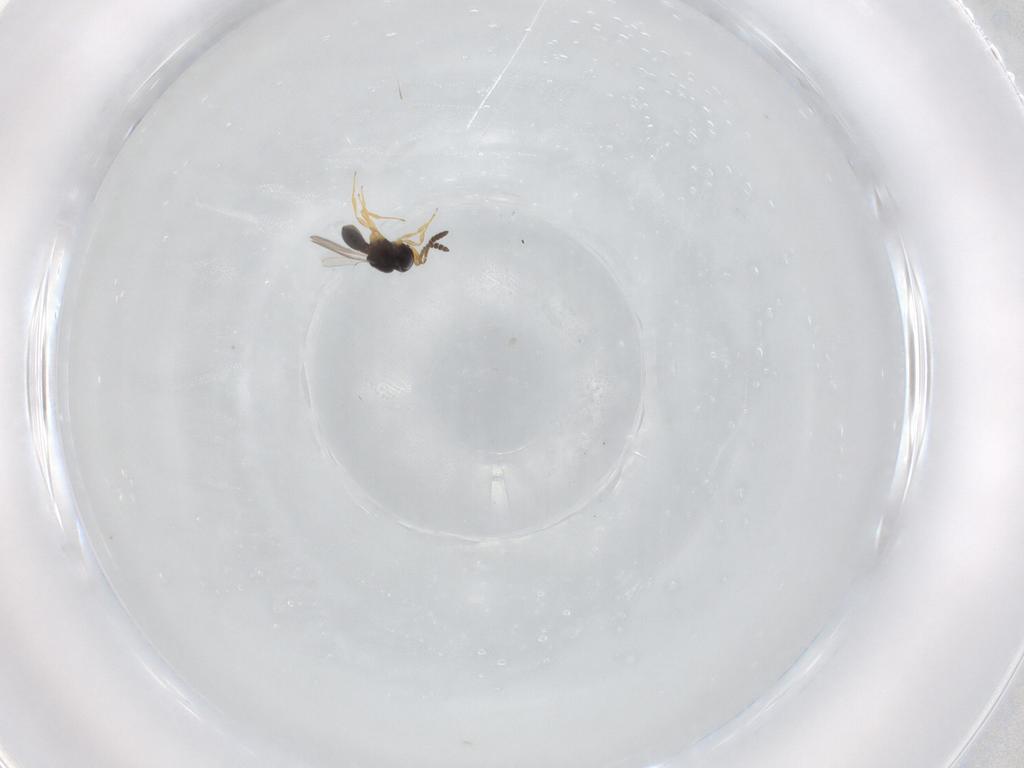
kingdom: Animalia
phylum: Arthropoda
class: Insecta
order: Hymenoptera
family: Scelionidae
